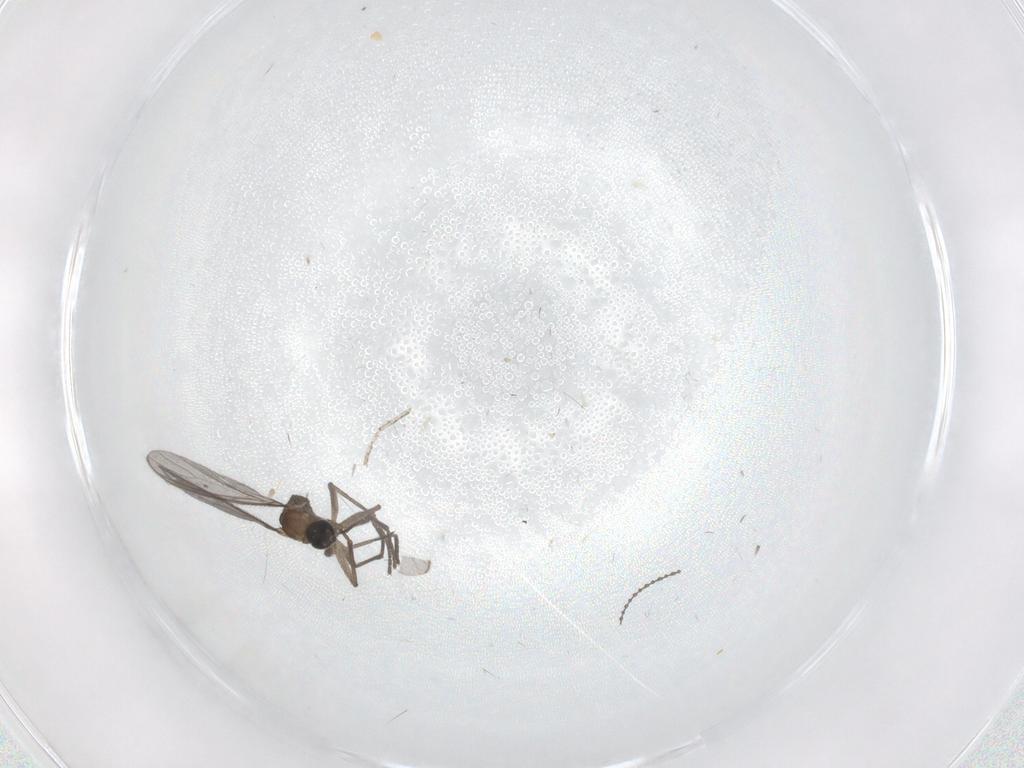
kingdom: Animalia
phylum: Arthropoda
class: Insecta
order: Diptera
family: Sciaridae
